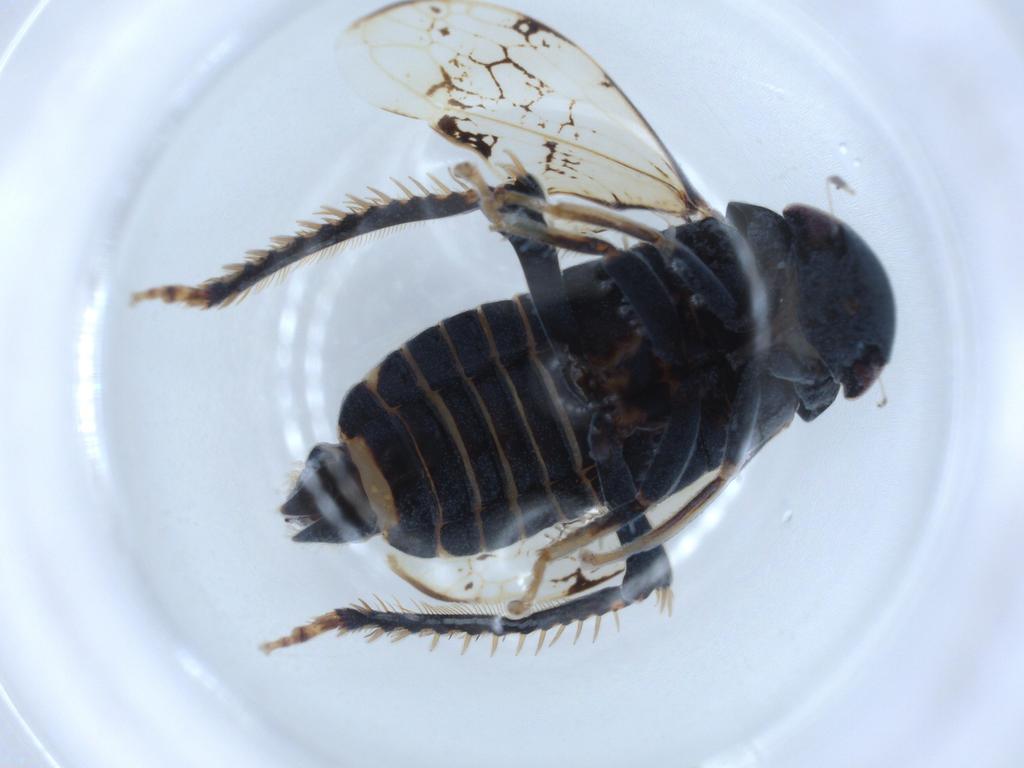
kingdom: Animalia
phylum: Arthropoda
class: Insecta
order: Hemiptera
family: Cicadellidae
